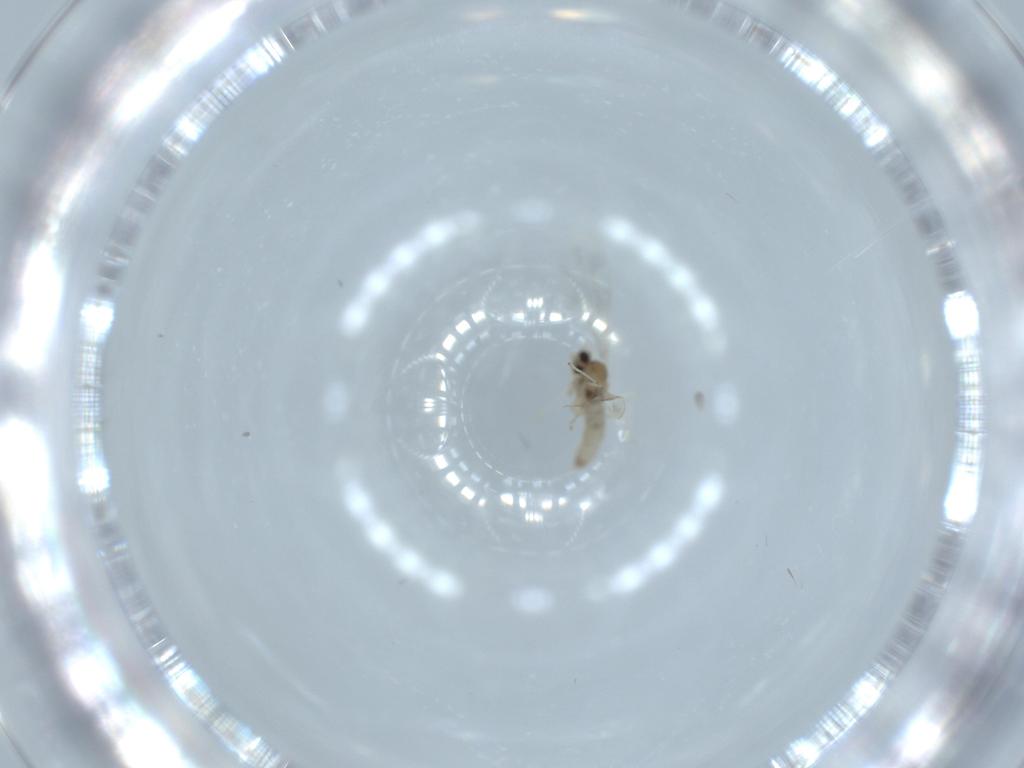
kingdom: Animalia
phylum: Arthropoda
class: Insecta
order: Diptera
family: Cecidomyiidae
